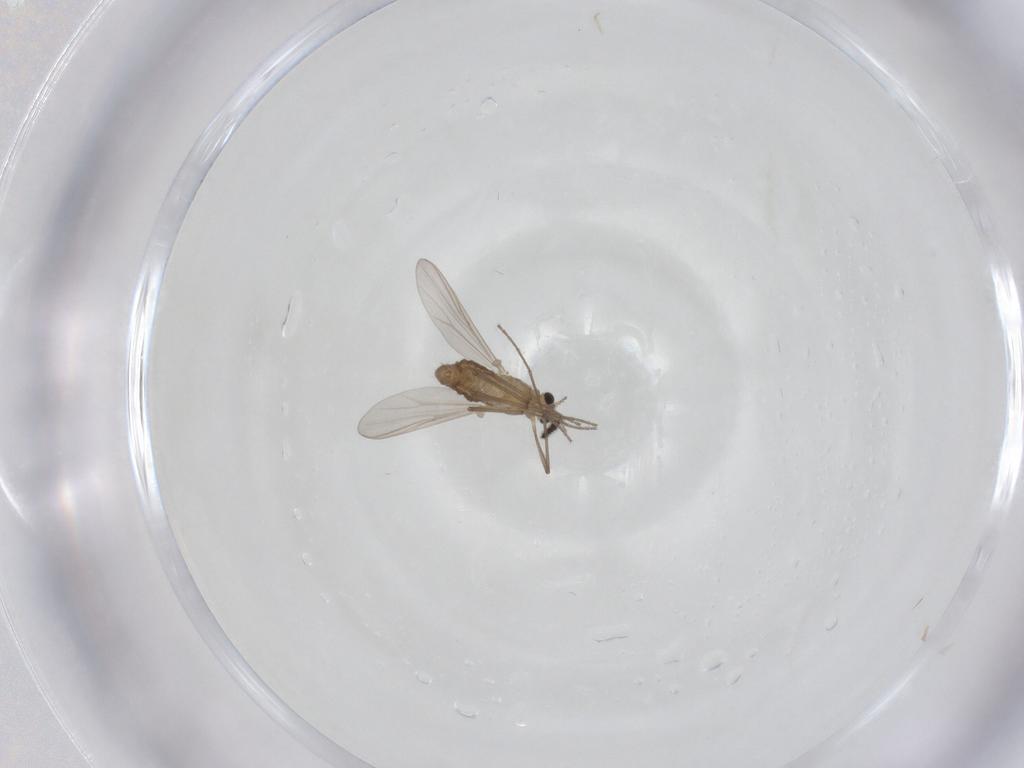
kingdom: Animalia
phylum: Arthropoda
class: Insecta
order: Diptera
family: Chironomidae
